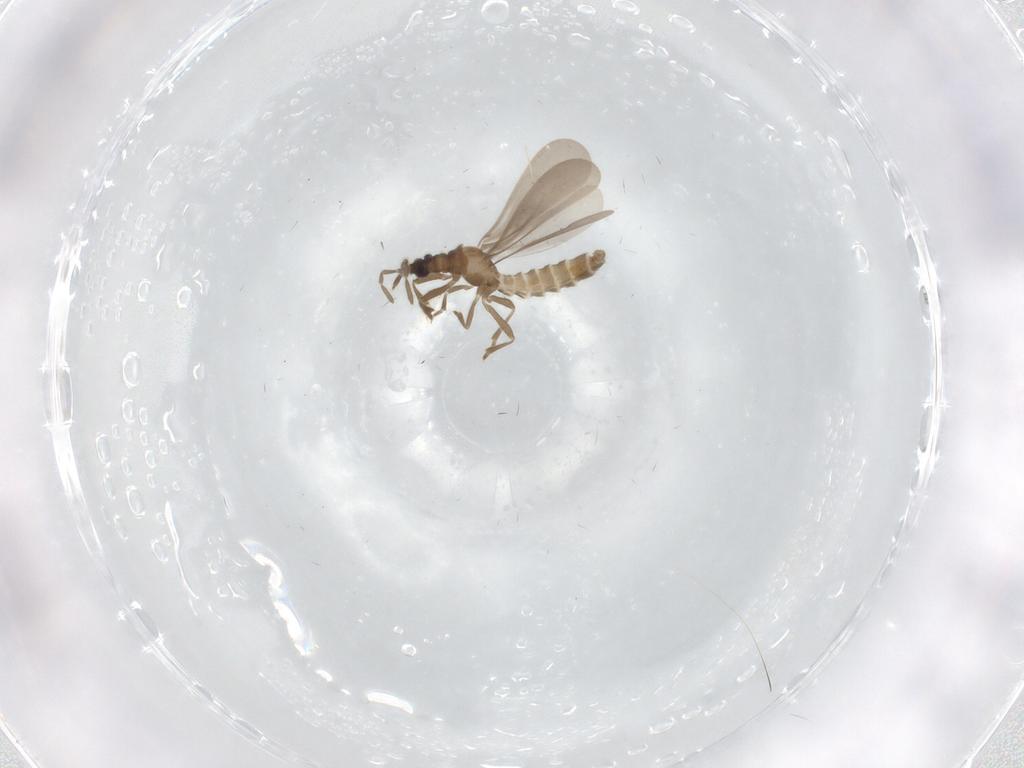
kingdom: Animalia
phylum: Arthropoda
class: Insecta
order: Hemiptera
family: Enicocephalidae
